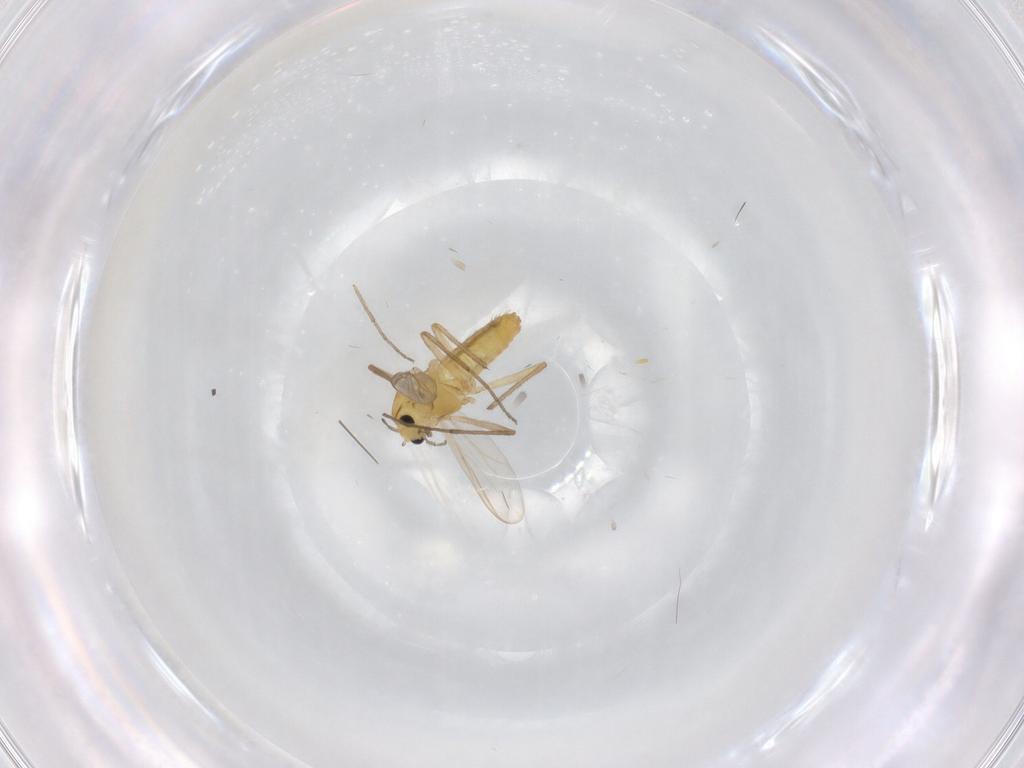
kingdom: Animalia
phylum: Arthropoda
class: Insecta
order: Diptera
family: Chironomidae
